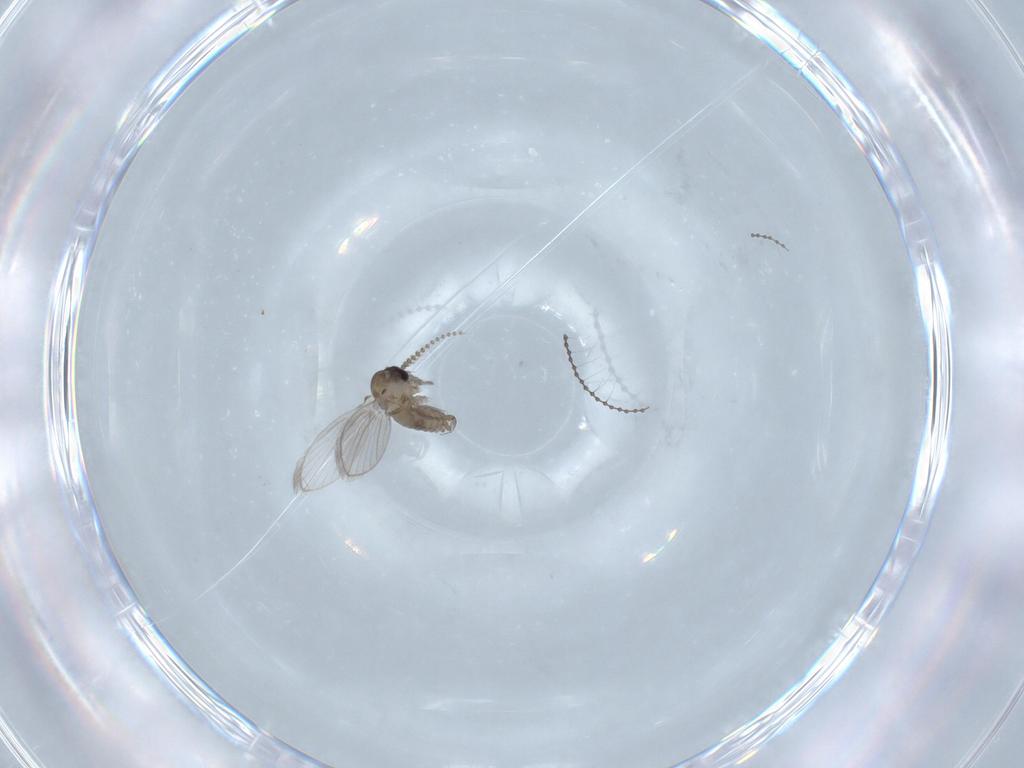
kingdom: Animalia
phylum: Arthropoda
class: Insecta
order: Diptera
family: Psychodidae
